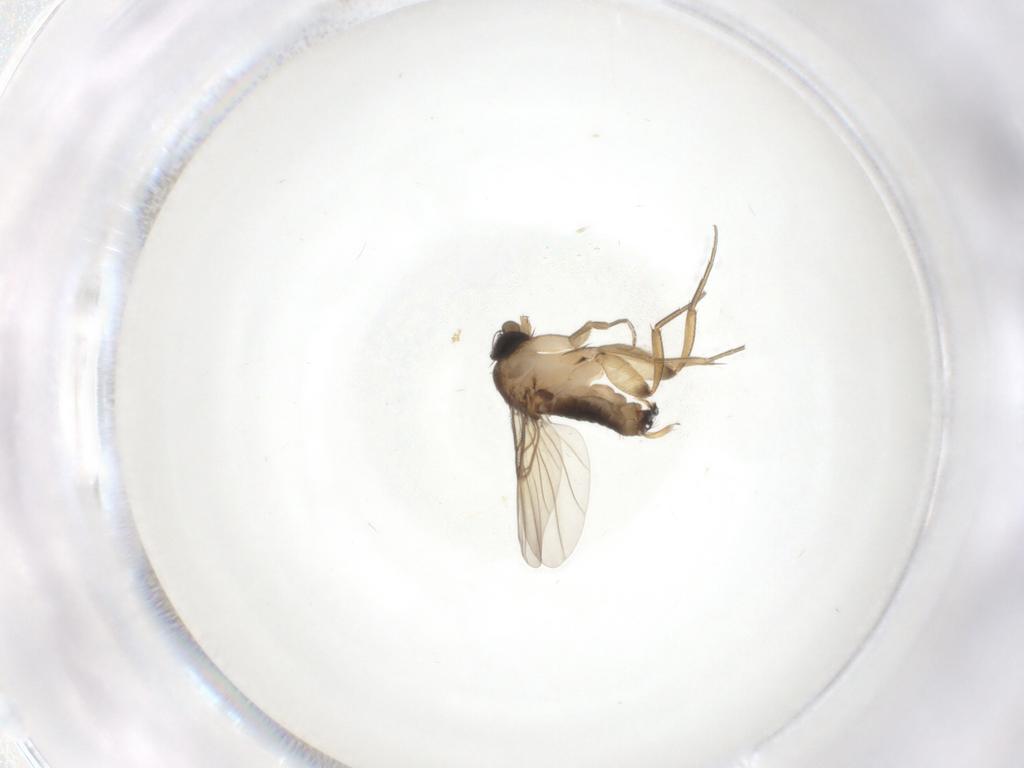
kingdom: Animalia
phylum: Arthropoda
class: Insecta
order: Diptera
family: Phoridae
